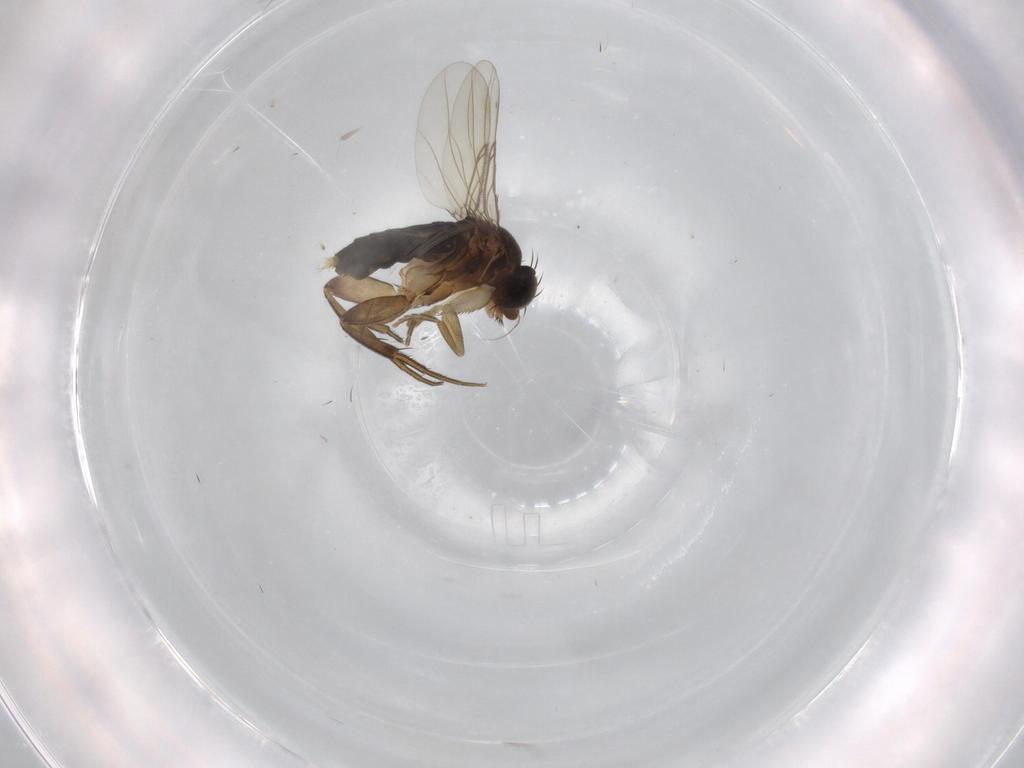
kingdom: Animalia
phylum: Arthropoda
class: Insecta
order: Diptera
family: Phoridae
